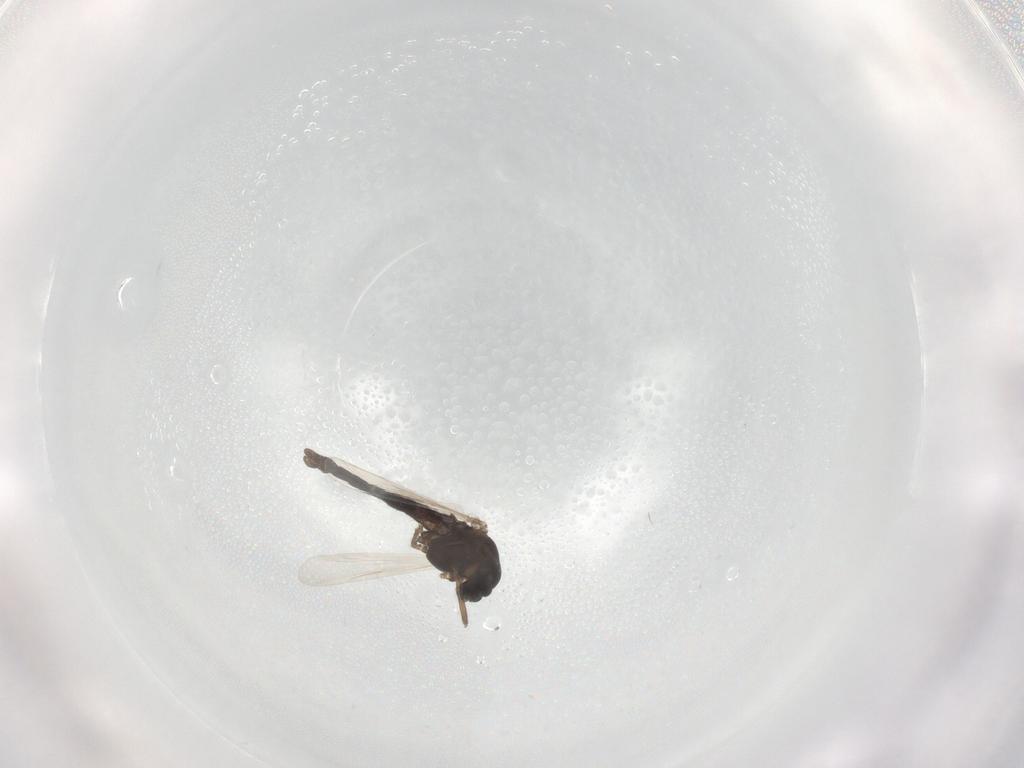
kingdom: Animalia
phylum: Arthropoda
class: Insecta
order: Diptera
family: Chironomidae
